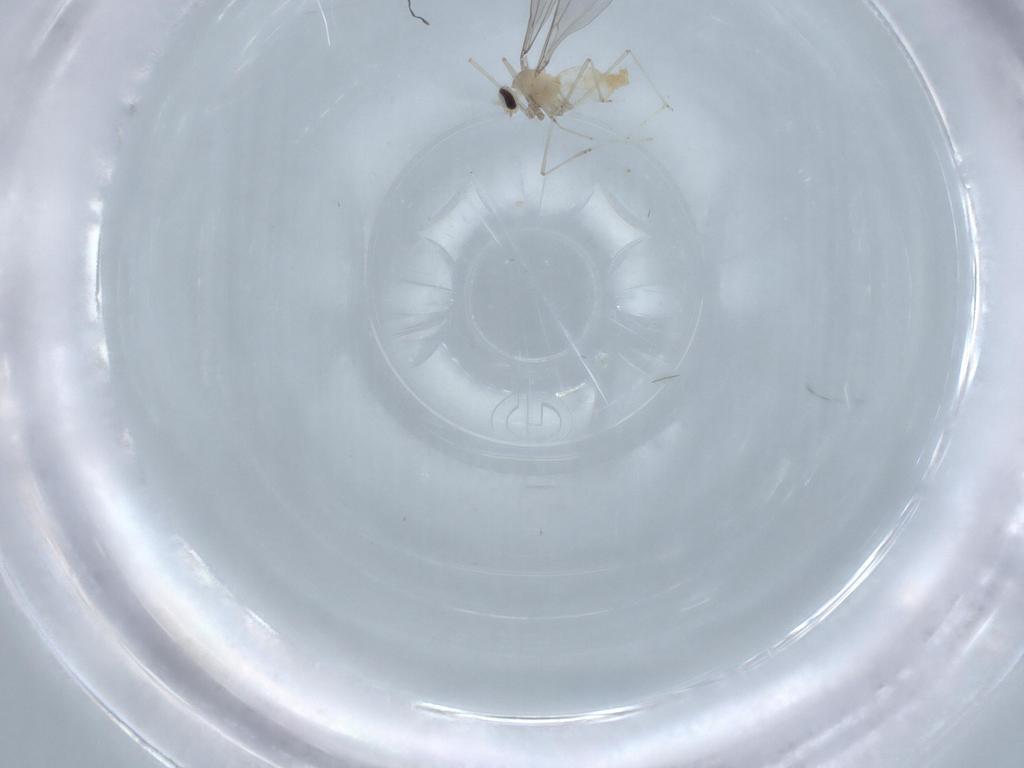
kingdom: Animalia
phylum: Arthropoda
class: Insecta
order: Diptera
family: Cecidomyiidae
